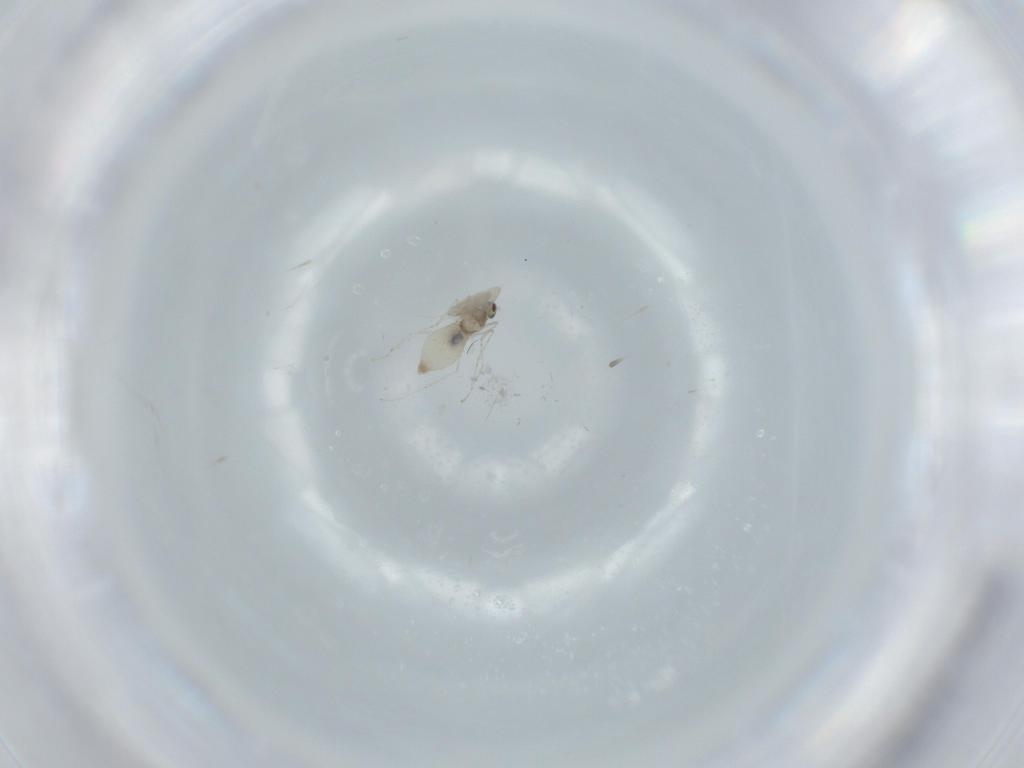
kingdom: Animalia
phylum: Arthropoda
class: Insecta
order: Diptera
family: Cecidomyiidae
